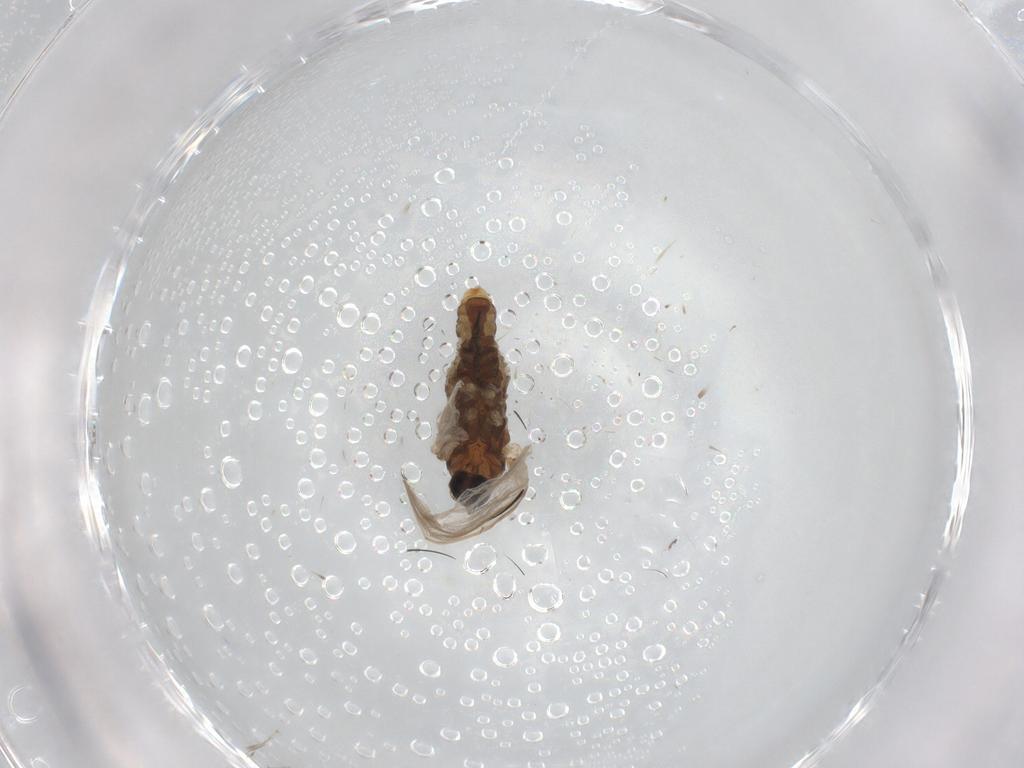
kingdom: Animalia
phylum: Arthropoda
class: Insecta
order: Diptera
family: Cecidomyiidae
